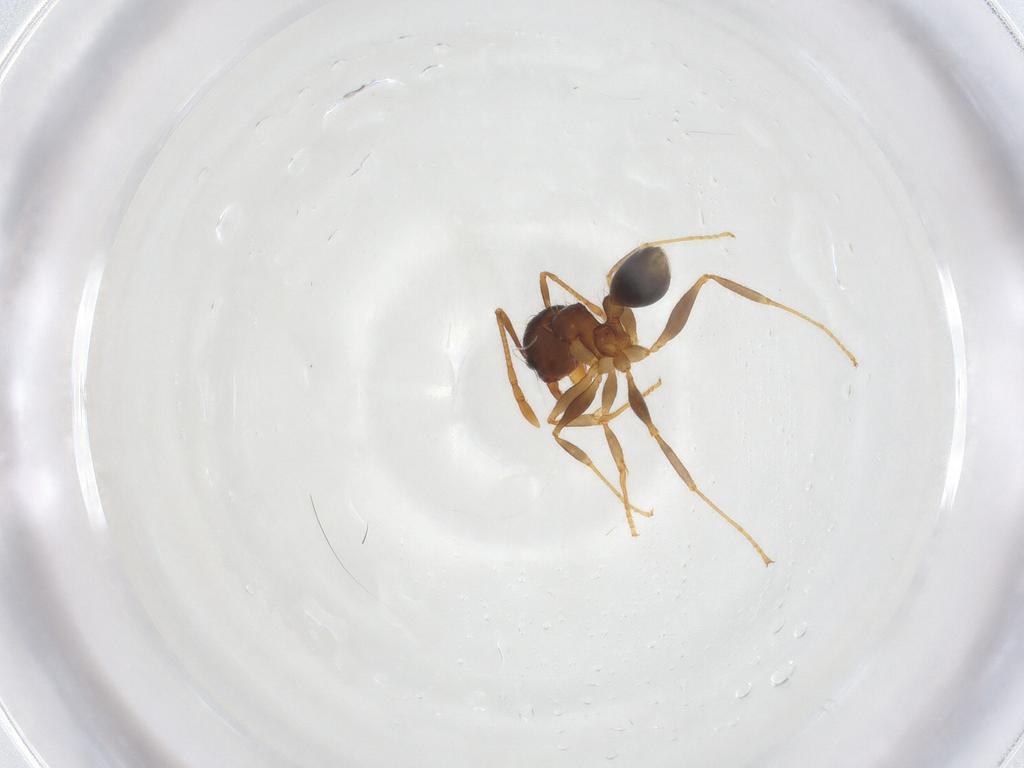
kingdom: Animalia
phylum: Arthropoda
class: Insecta
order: Hymenoptera
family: Formicidae
